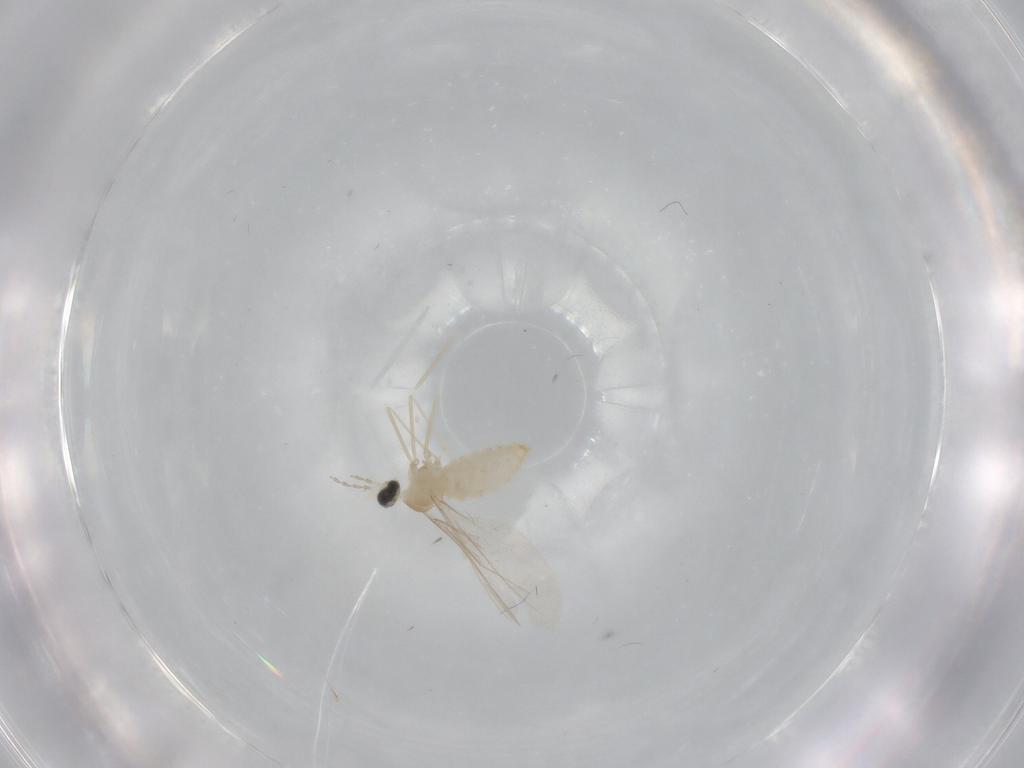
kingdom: Animalia
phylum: Arthropoda
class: Insecta
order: Diptera
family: Cecidomyiidae
